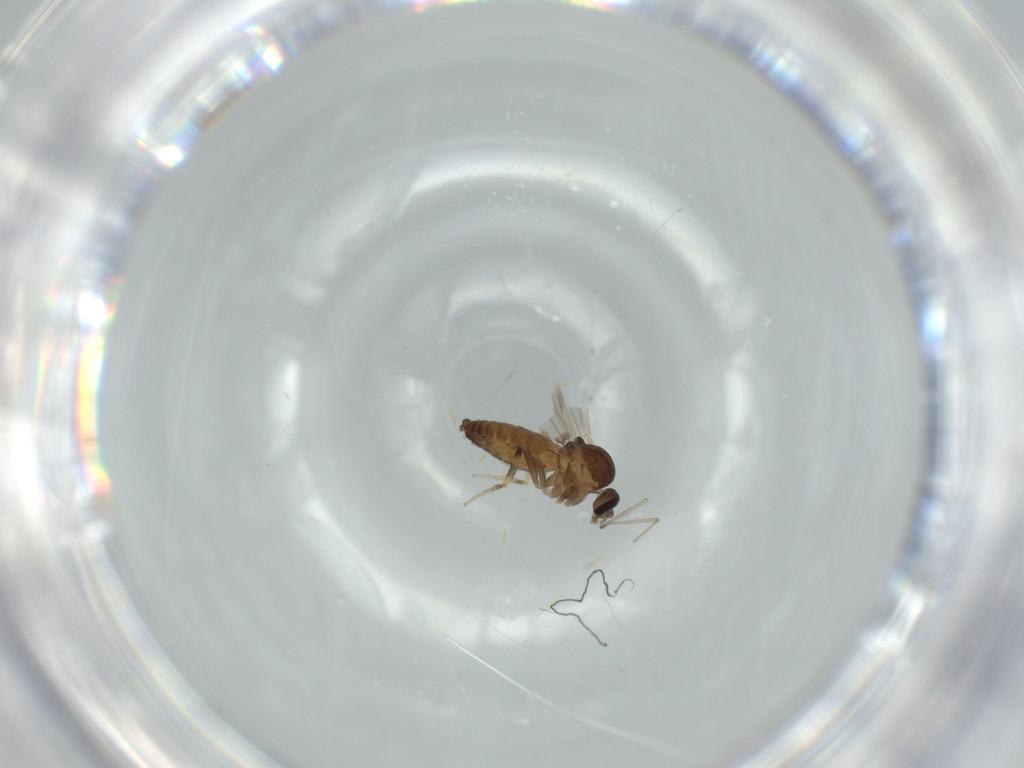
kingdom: Animalia
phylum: Arthropoda
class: Insecta
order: Diptera
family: Ceratopogonidae
